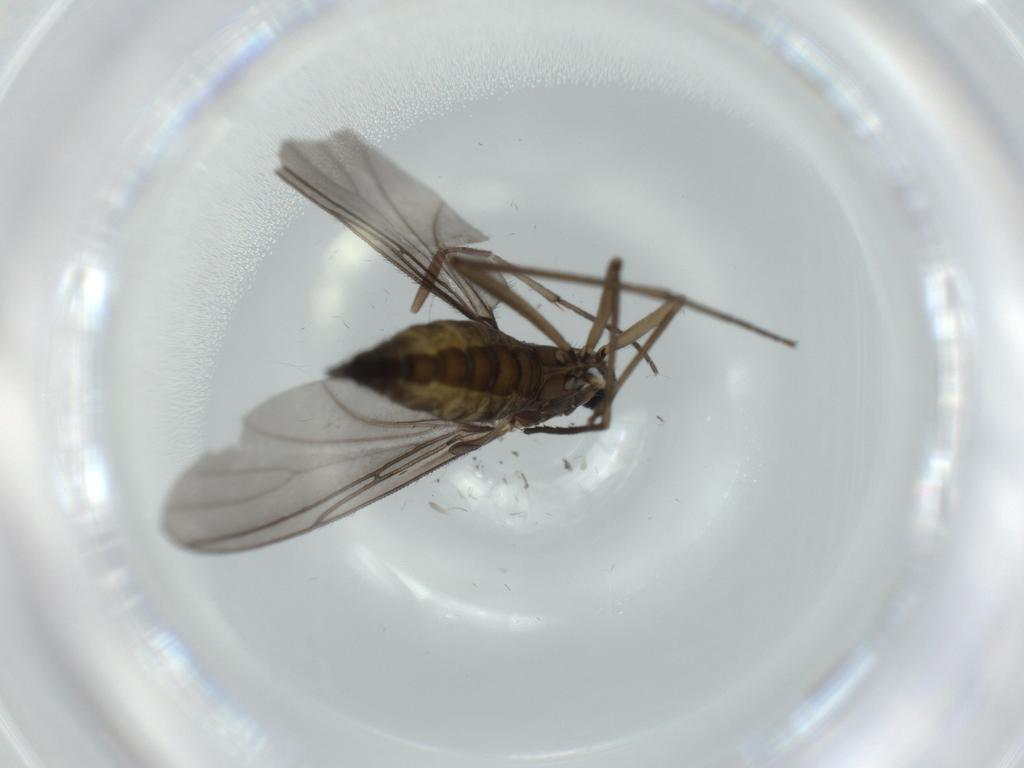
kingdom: Animalia
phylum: Arthropoda
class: Insecta
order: Diptera
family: Sciaridae
